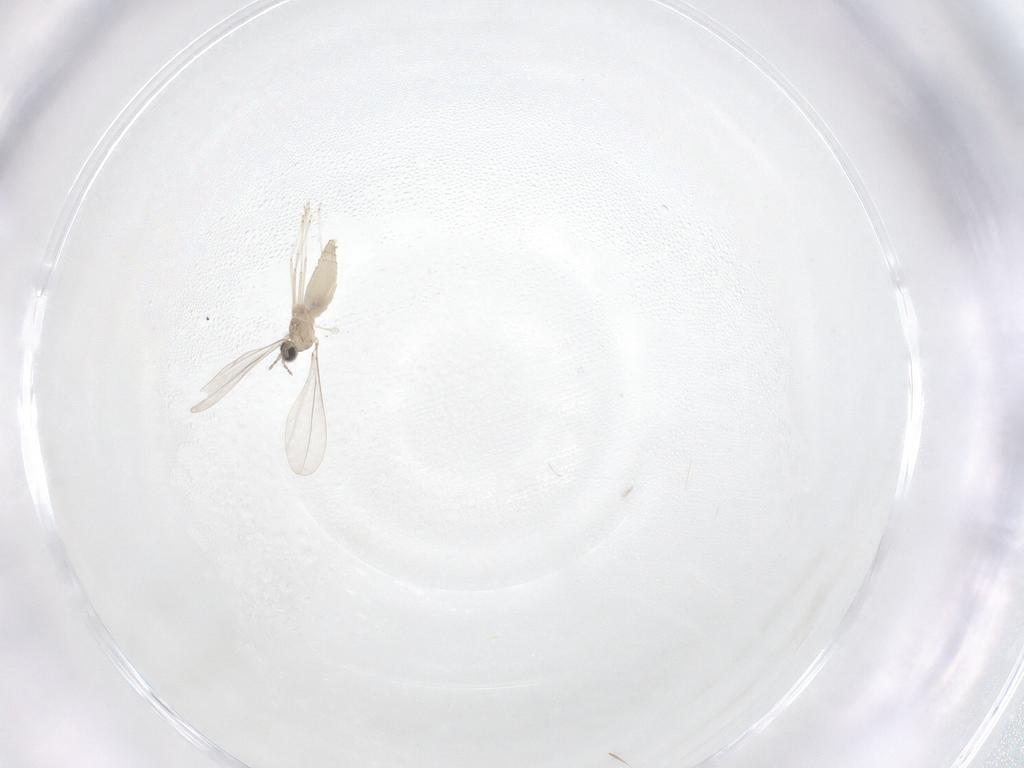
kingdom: Animalia
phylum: Arthropoda
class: Insecta
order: Diptera
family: Cecidomyiidae
